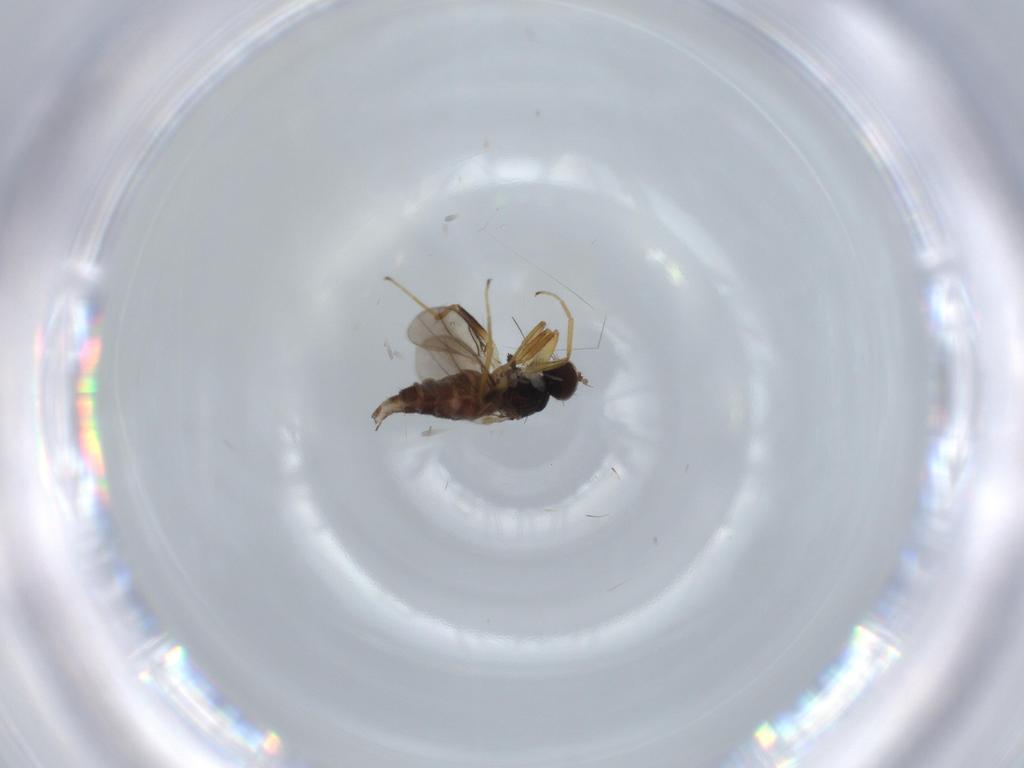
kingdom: Animalia
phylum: Arthropoda
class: Insecta
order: Diptera
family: Hybotidae
